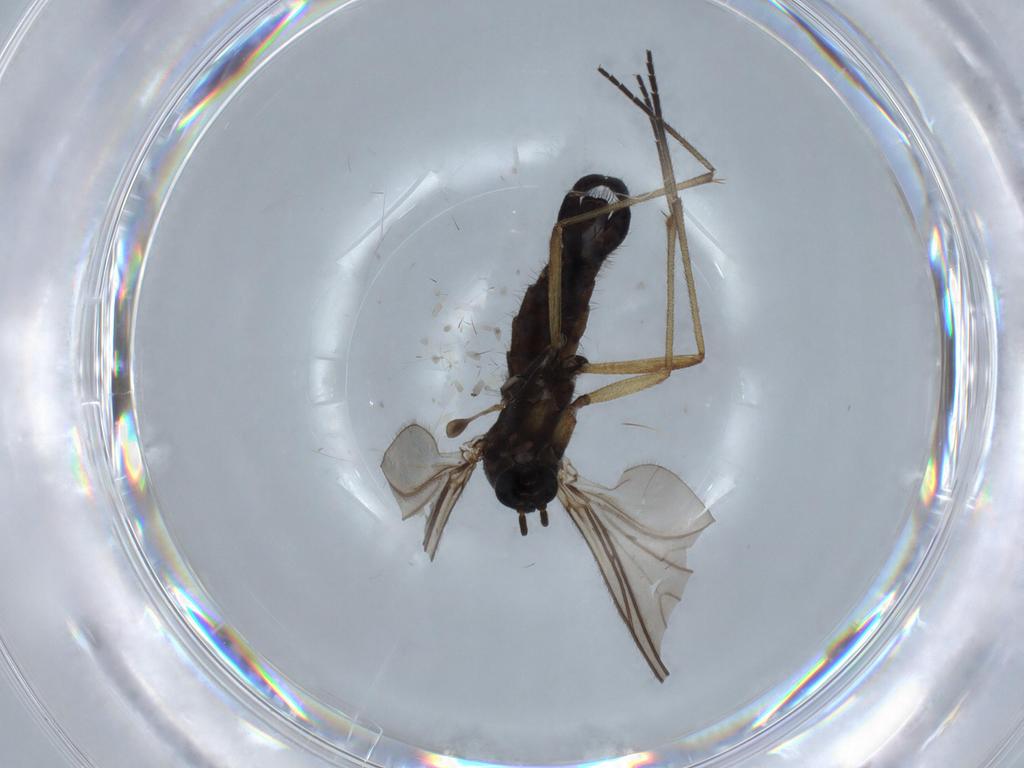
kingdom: Animalia
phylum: Arthropoda
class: Insecta
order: Diptera
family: Sciaridae
